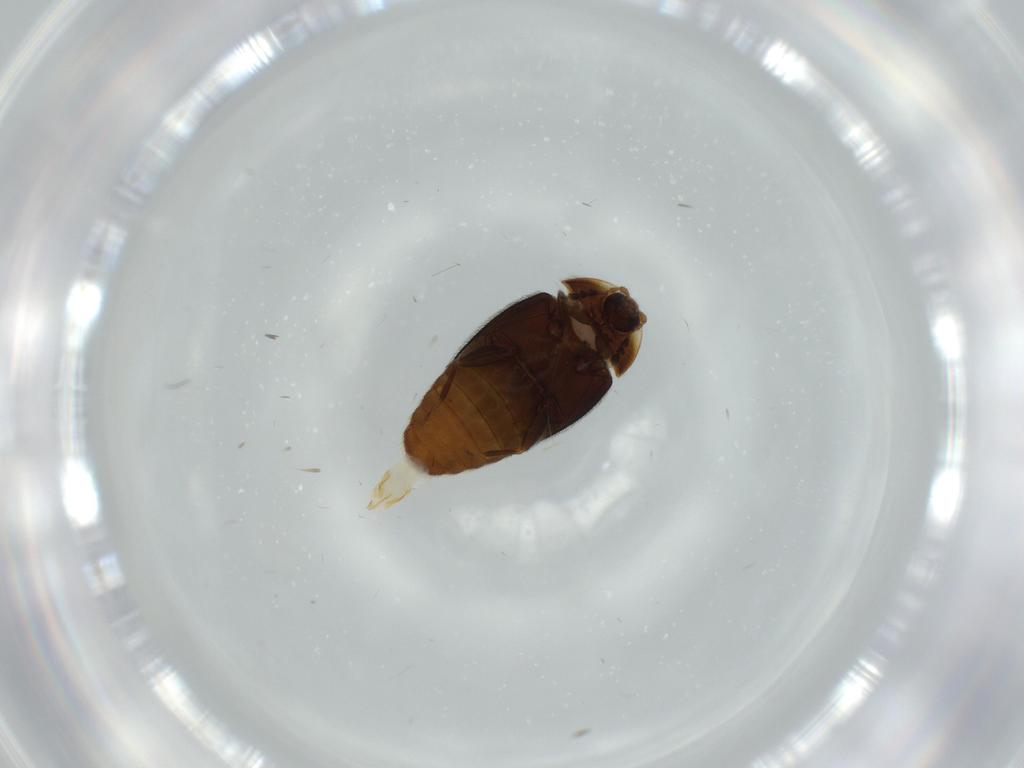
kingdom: Animalia
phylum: Arthropoda
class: Insecta
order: Coleoptera
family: Corylophidae
